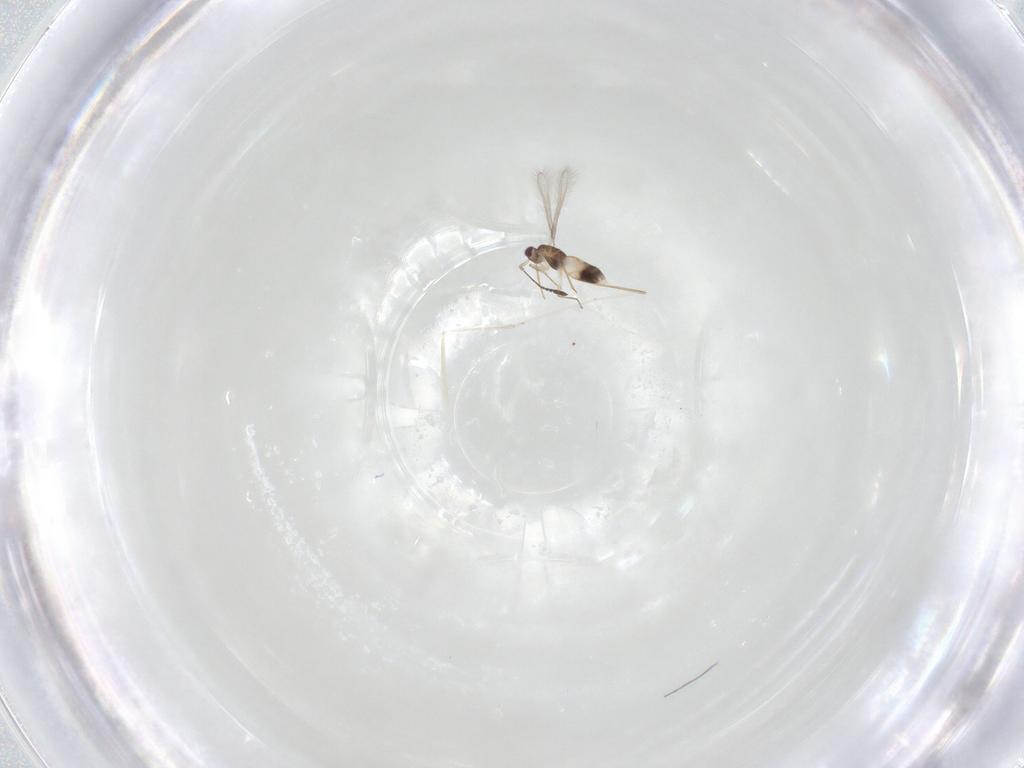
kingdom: Animalia
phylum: Arthropoda
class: Insecta
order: Hymenoptera
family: Mymaridae
